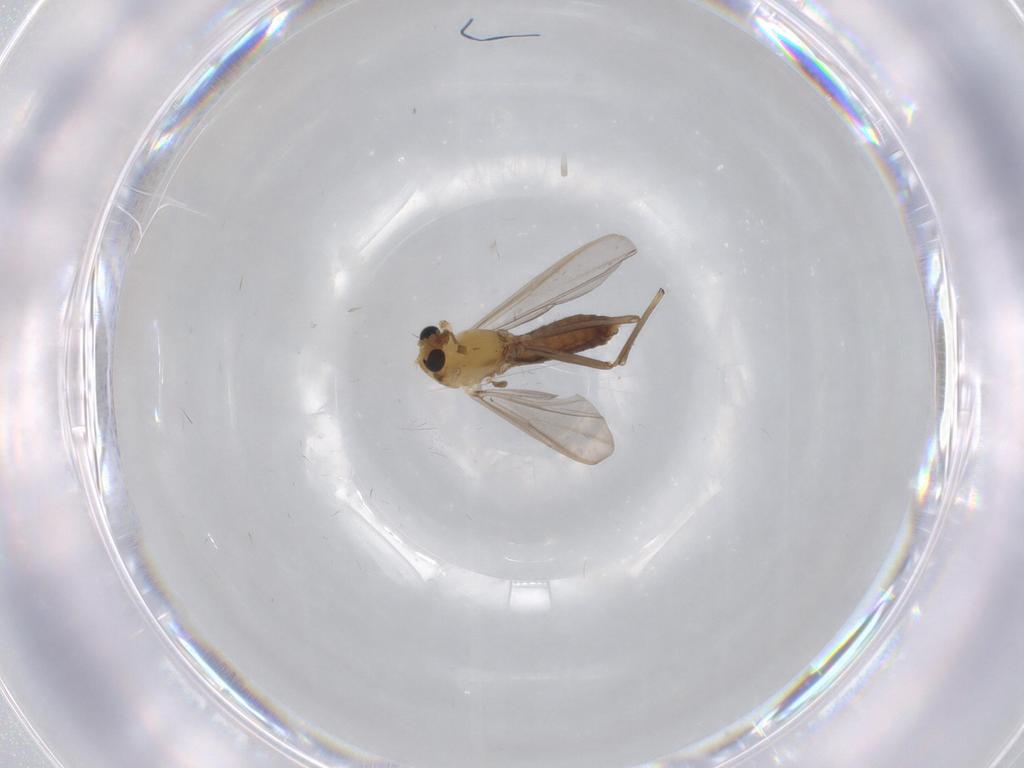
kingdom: Animalia
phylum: Arthropoda
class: Insecta
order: Diptera
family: Chironomidae
